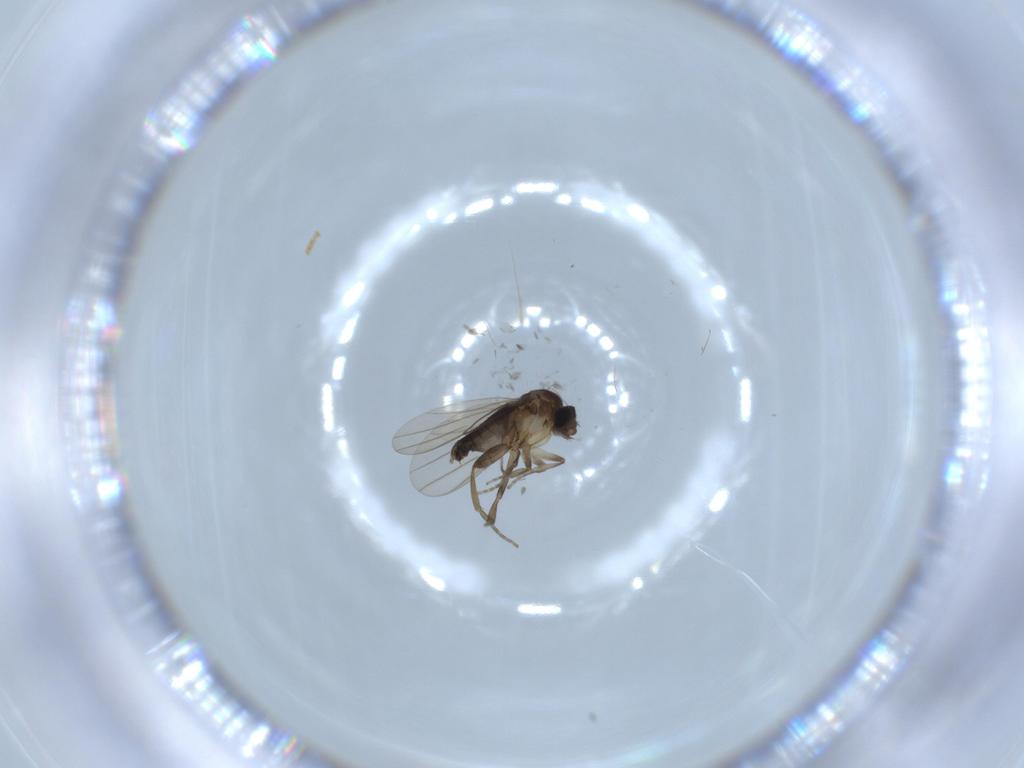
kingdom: Animalia
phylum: Arthropoda
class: Insecta
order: Diptera
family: Phoridae
